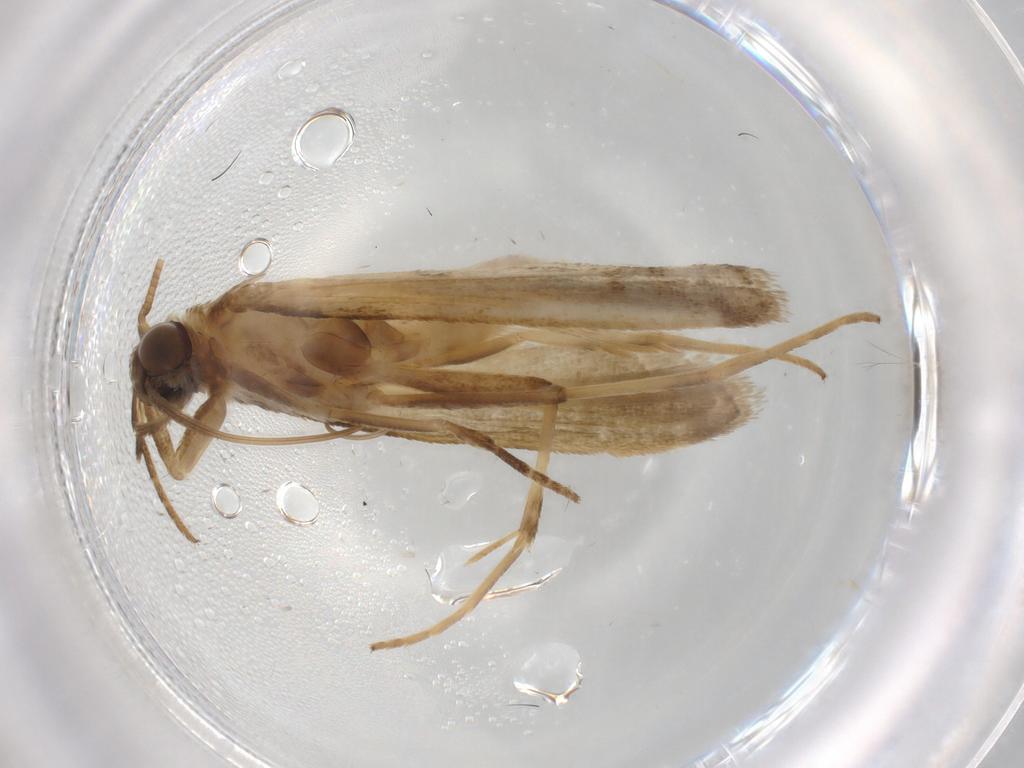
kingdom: Animalia
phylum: Arthropoda
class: Insecta
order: Lepidoptera
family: Noctuidae
